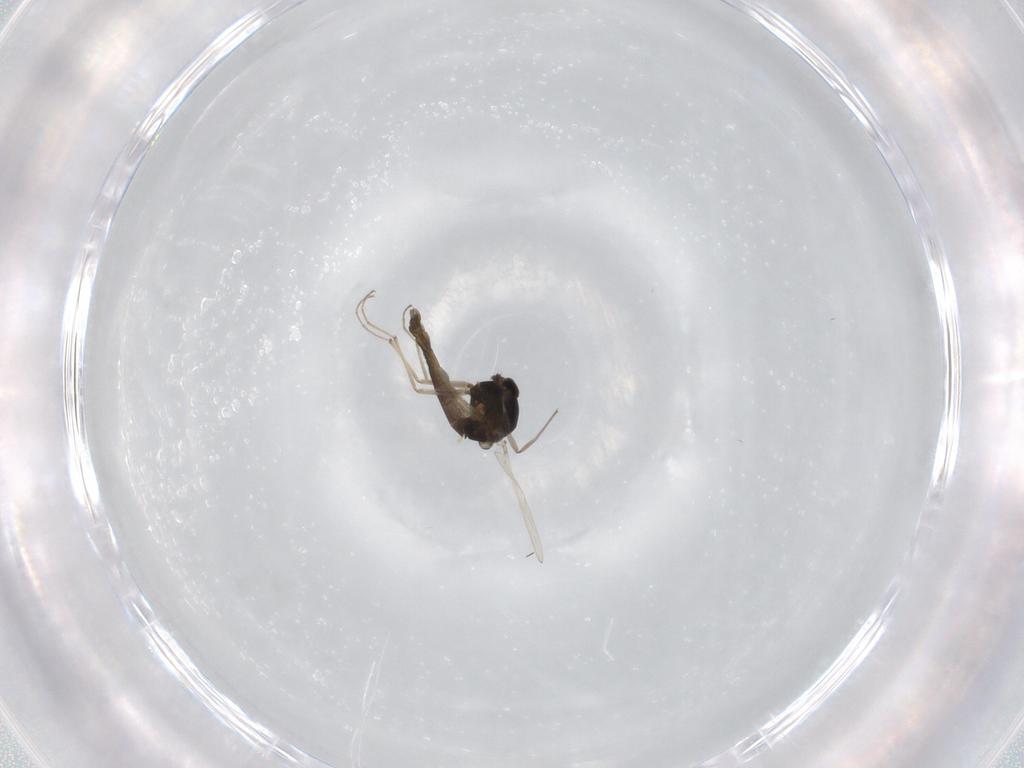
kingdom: Animalia
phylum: Arthropoda
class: Insecta
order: Diptera
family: Chironomidae
